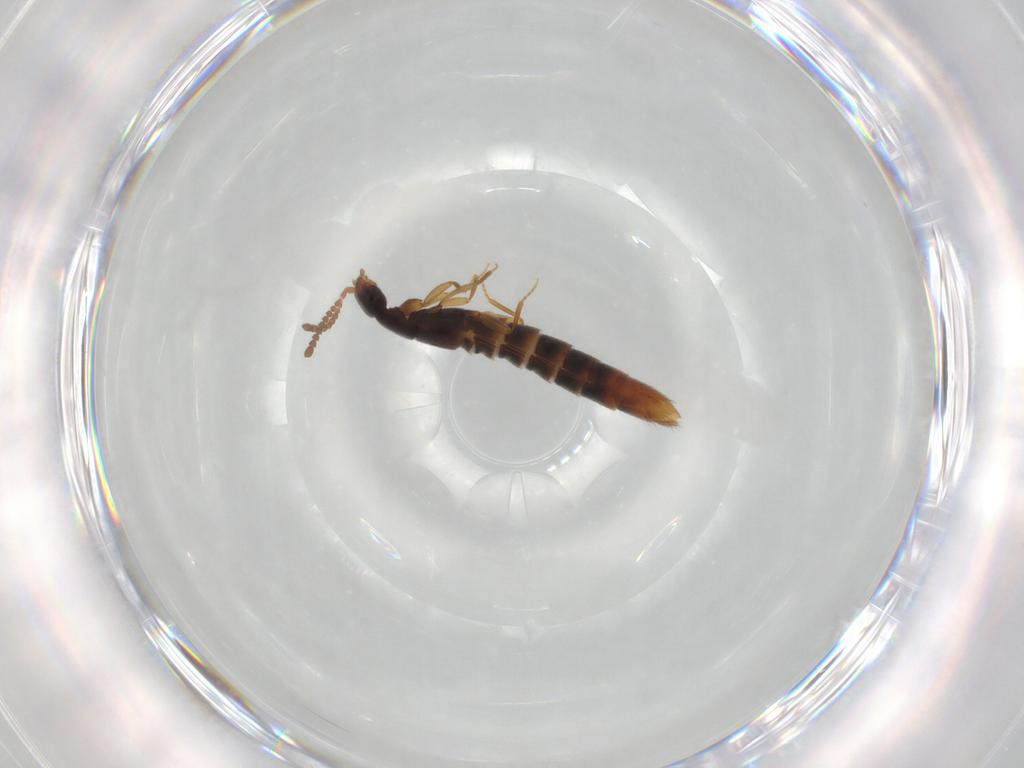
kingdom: Animalia
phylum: Arthropoda
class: Insecta
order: Coleoptera
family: Staphylinidae
